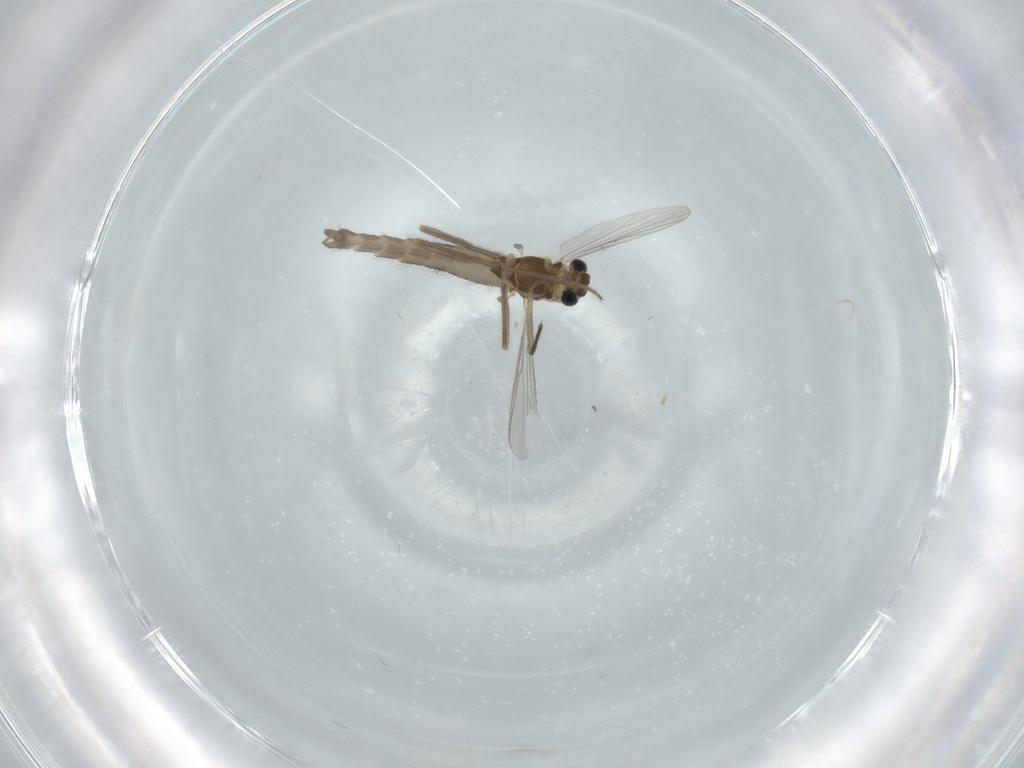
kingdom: Animalia
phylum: Arthropoda
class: Insecta
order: Diptera
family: Chironomidae
